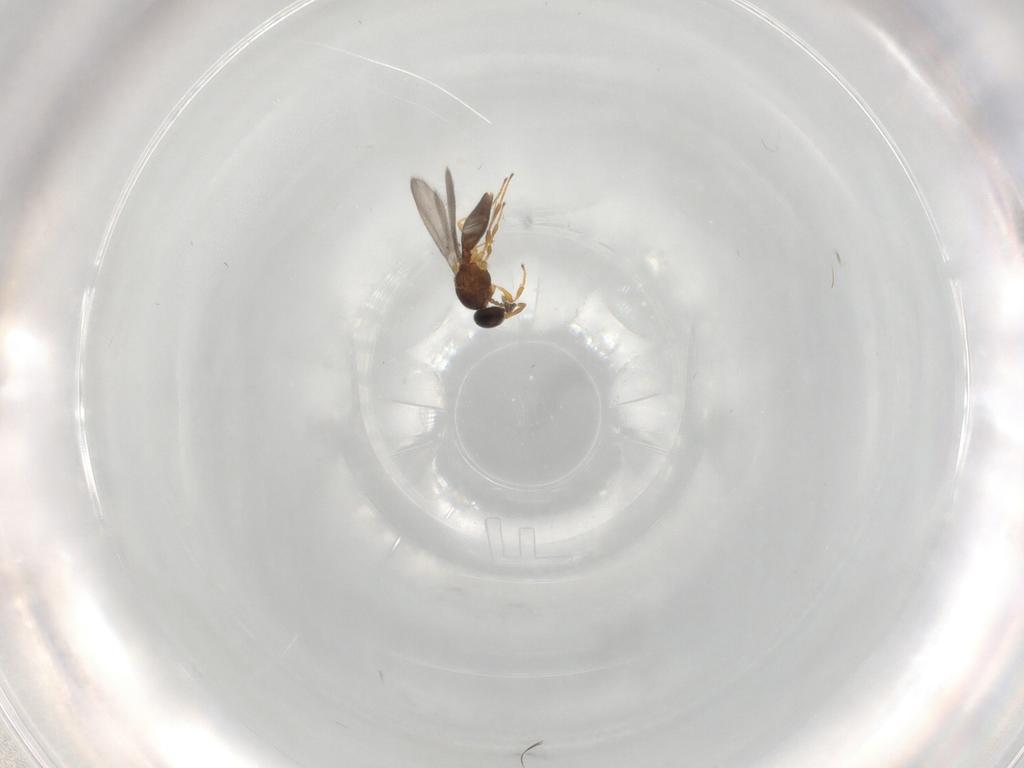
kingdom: Animalia
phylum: Arthropoda
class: Insecta
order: Hymenoptera
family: Platygastridae
